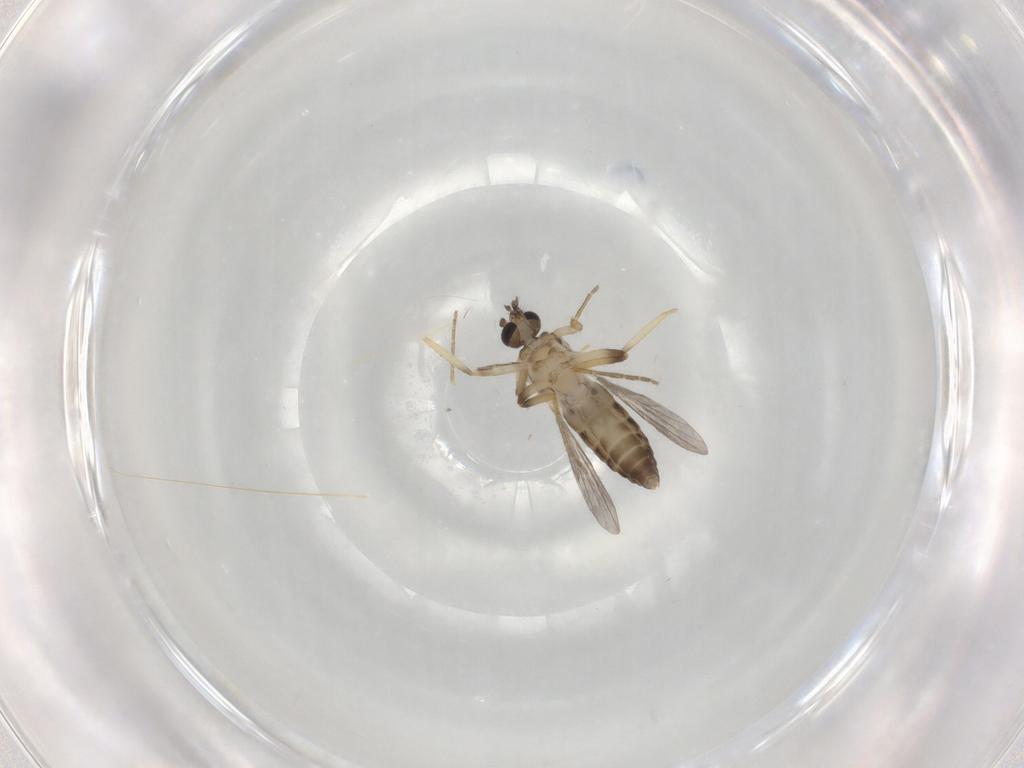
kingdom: Animalia
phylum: Arthropoda
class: Insecta
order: Diptera
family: Ceratopogonidae
